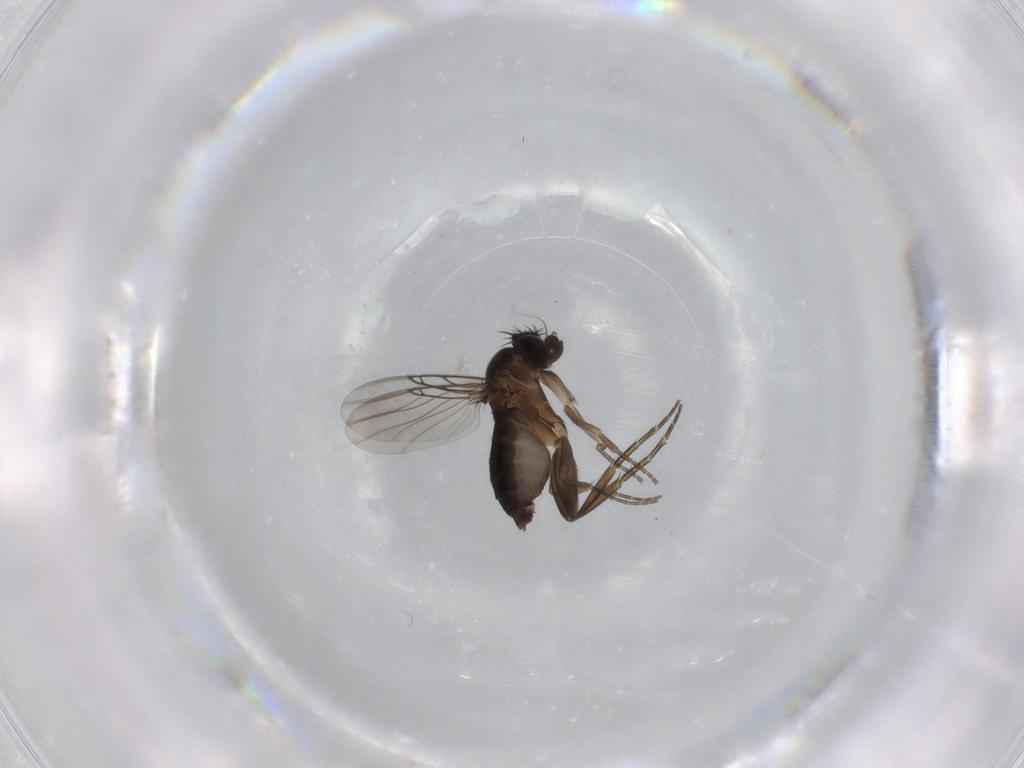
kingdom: Animalia
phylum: Arthropoda
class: Insecta
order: Diptera
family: Phoridae
